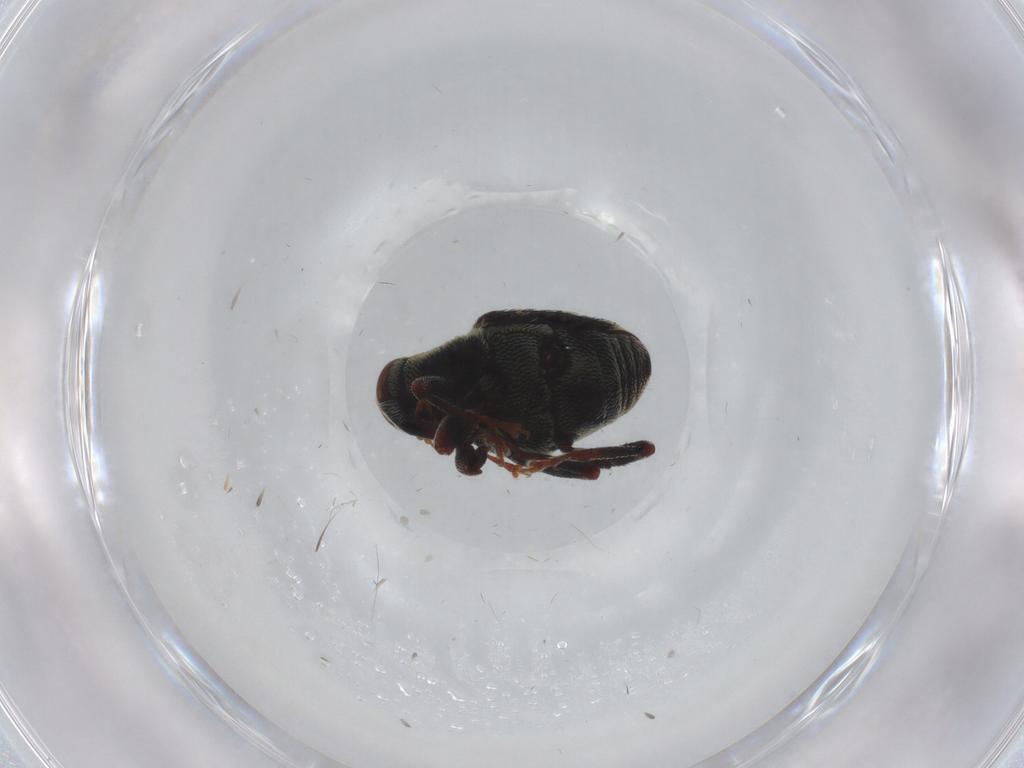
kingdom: Animalia
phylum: Arthropoda
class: Insecta
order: Coleoptera
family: Curculionidae
